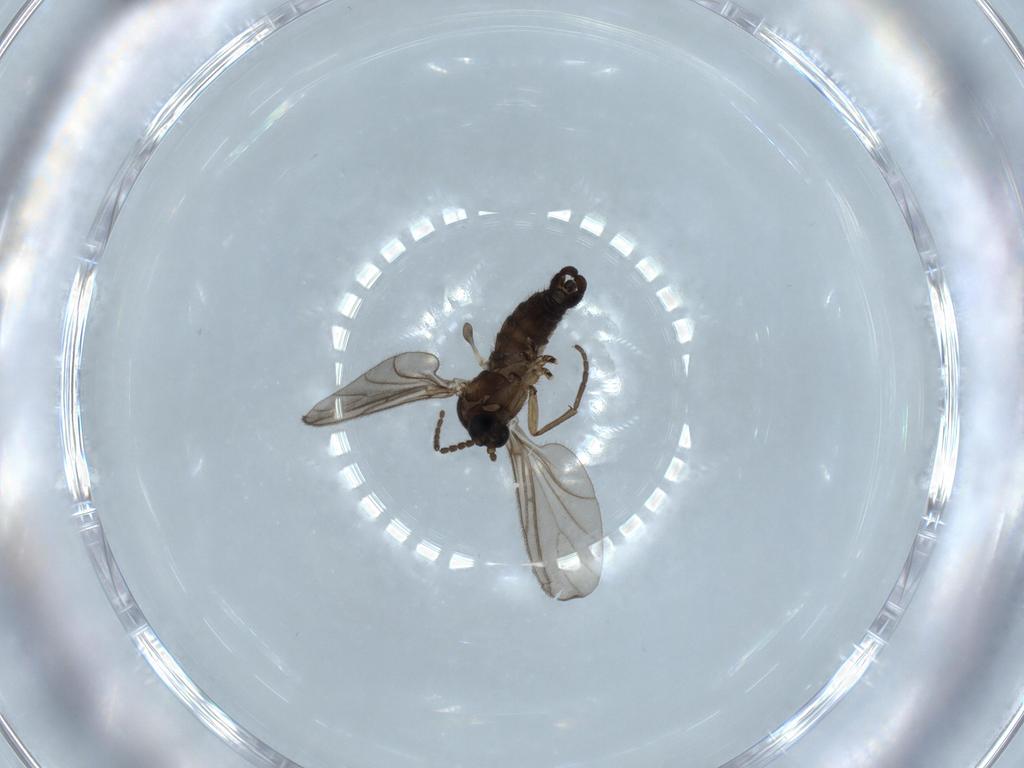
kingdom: Animalia
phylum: Arthropoda
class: Insecta
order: Diptera
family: Sciaridae
